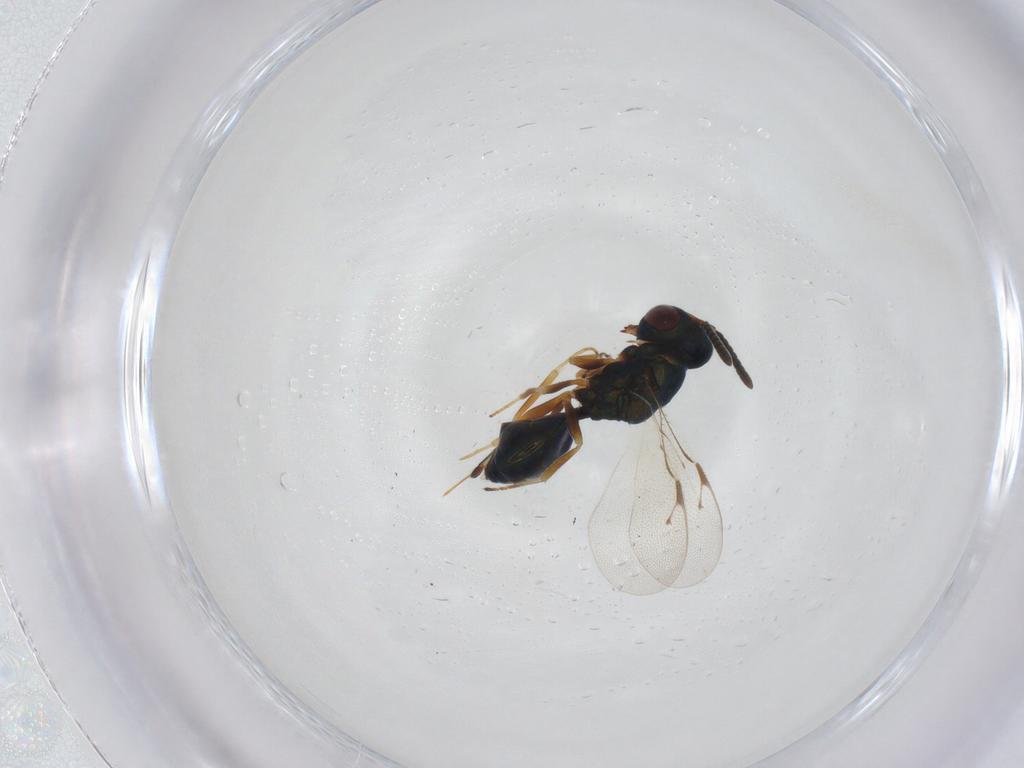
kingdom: Animalia
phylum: Arthropoda
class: Insecta
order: Hymenoptera
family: Pteromalidae
